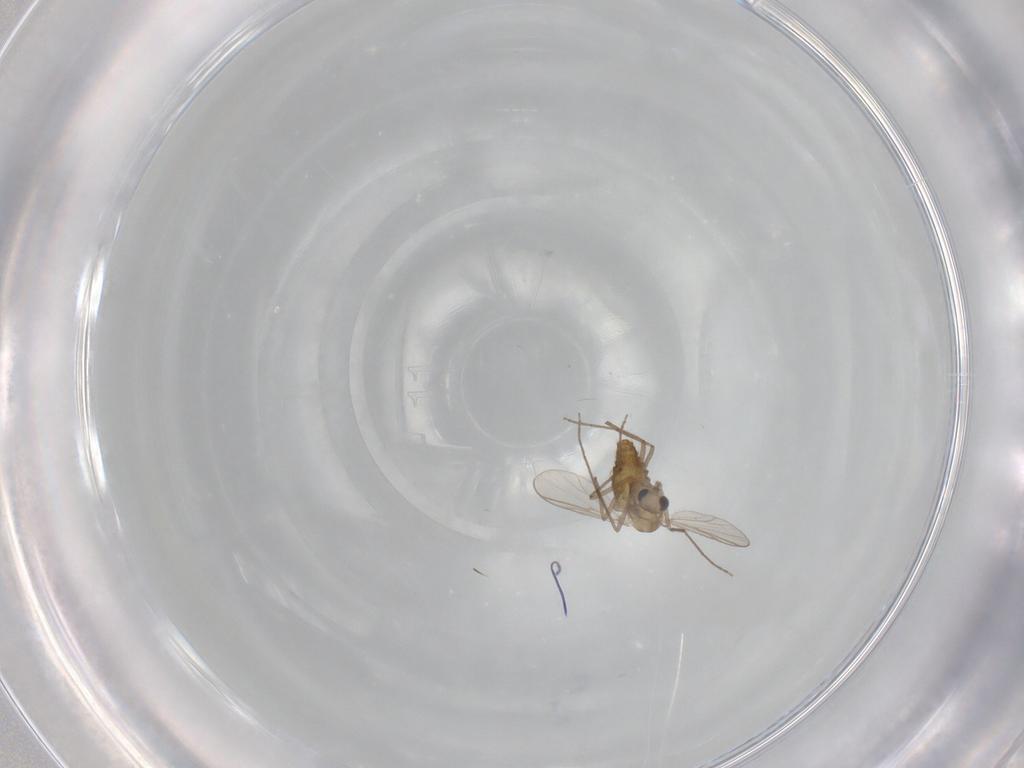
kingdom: Animalia
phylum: Arthropoda
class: Insecta
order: Diptera
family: Chironomidae
